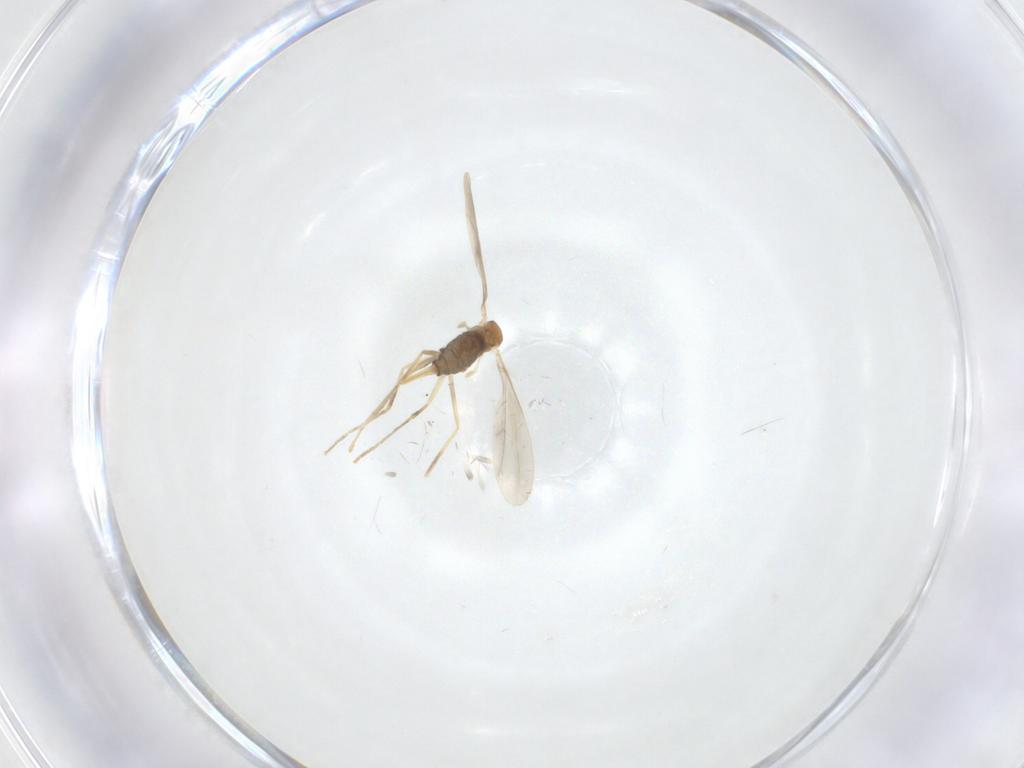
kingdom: Animalia
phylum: Arthropoda
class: Insecta
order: Diptera
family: Cecidomyiidae
